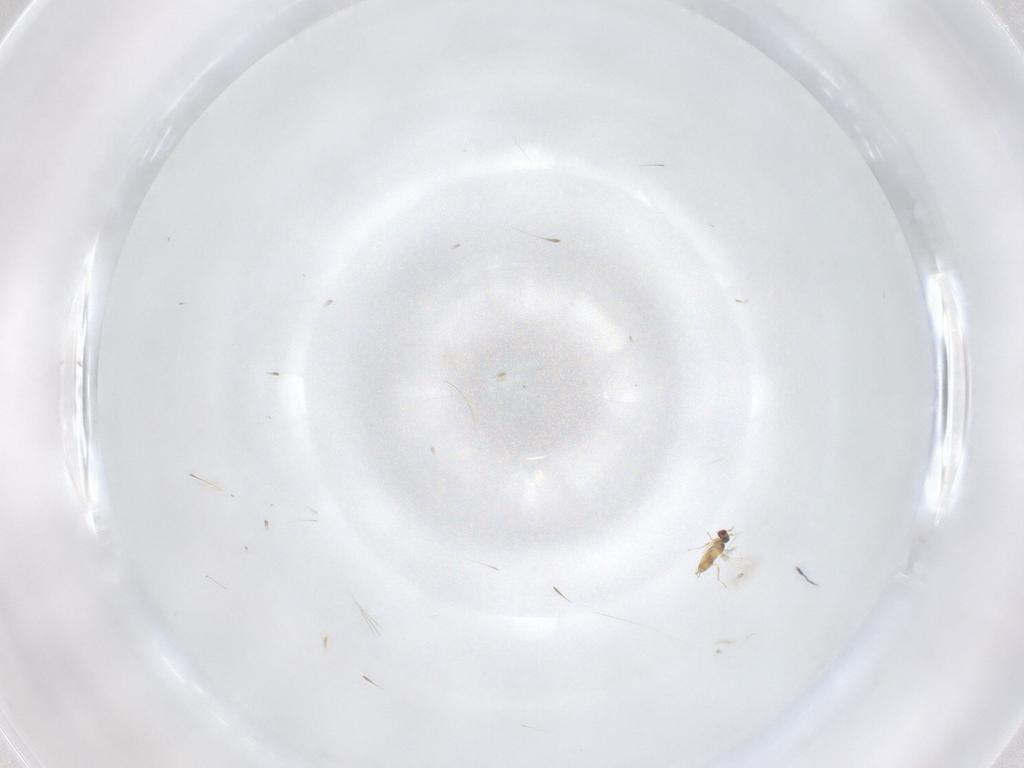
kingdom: Animalia
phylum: Arthropoda
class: Insecta
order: Hymenoptera
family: Mymaridae
